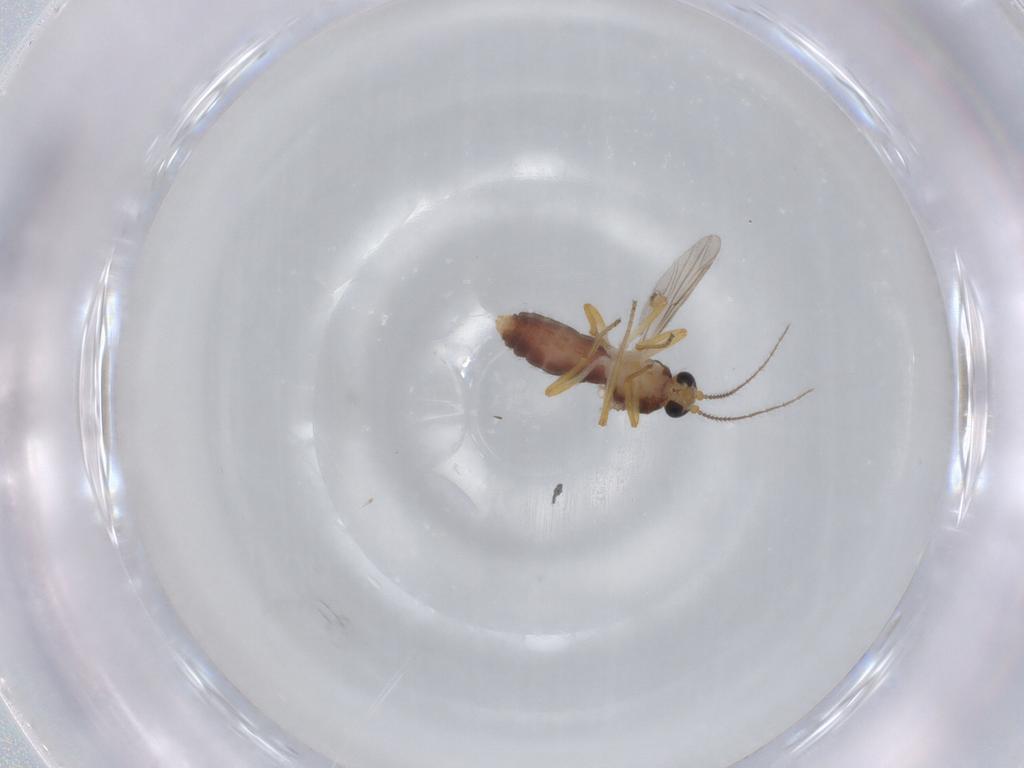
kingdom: Animalia
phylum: Arthropoda
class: Insecta
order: Diptera
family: Ceratopogonidae
